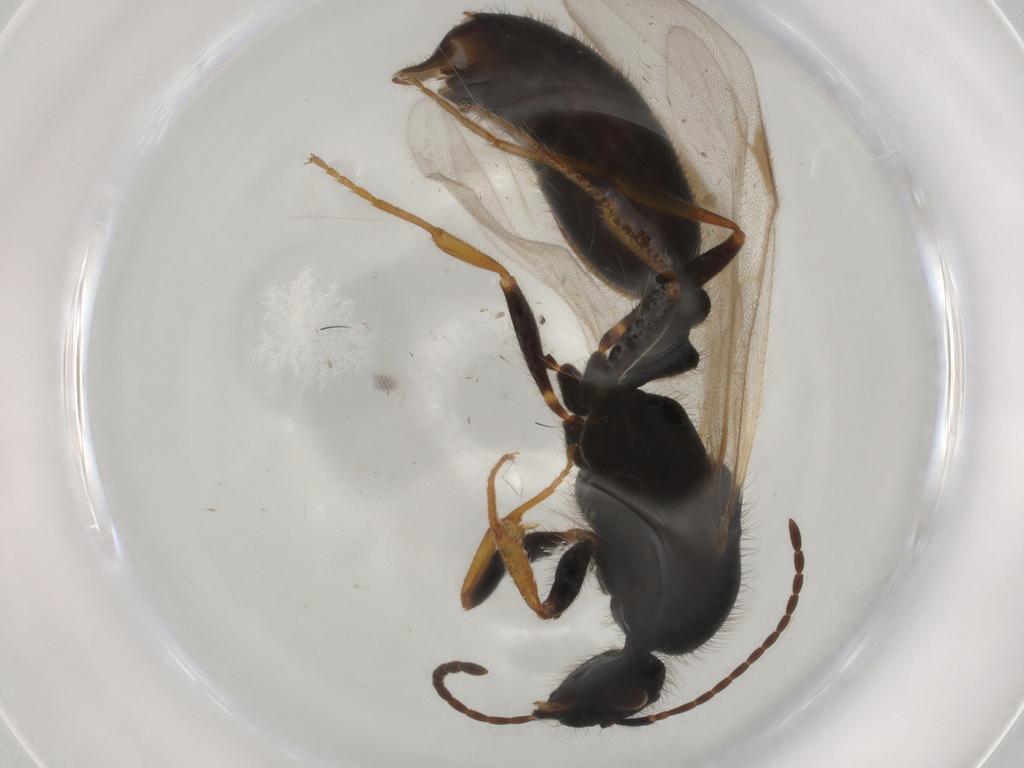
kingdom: Animalia
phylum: Arthropoda
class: Insecta
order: Hymenoptera
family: Formicidae
